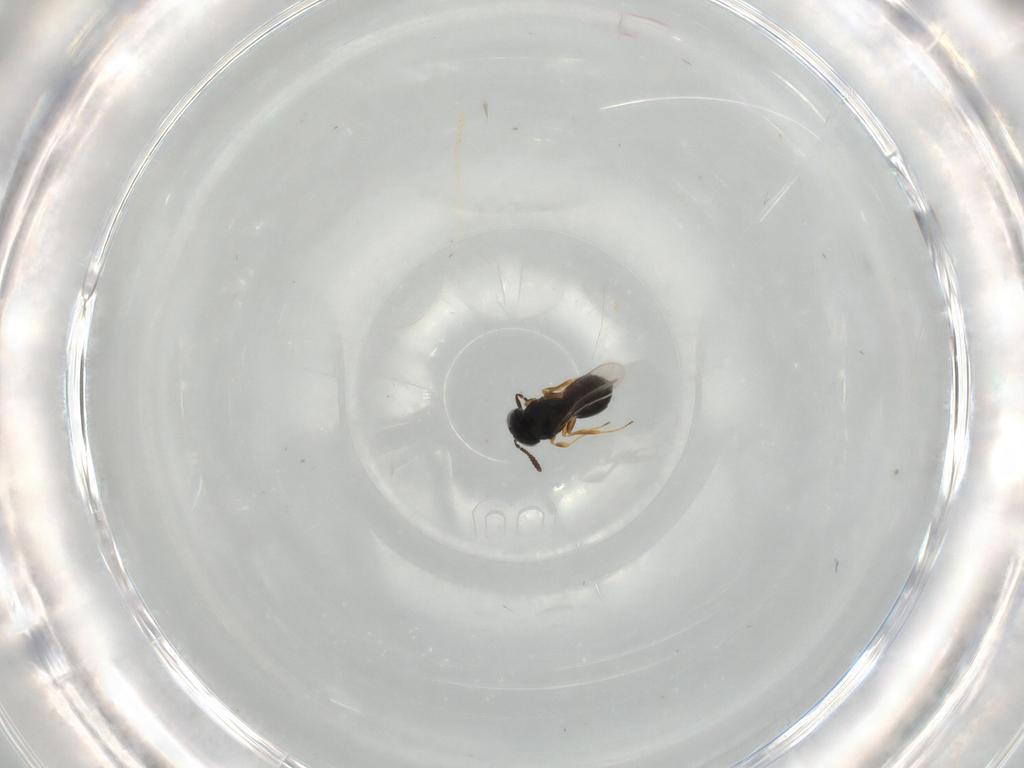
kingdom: Animalia
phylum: Arthropoda
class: Insecta
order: Hymenoptera
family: Scelionidae
